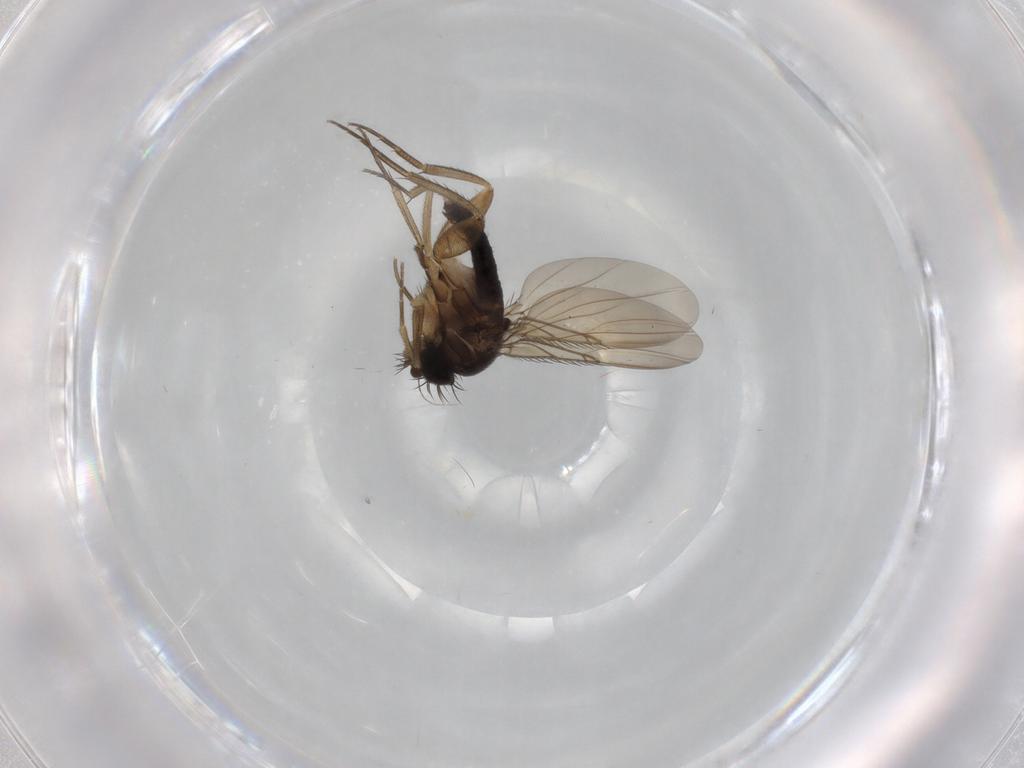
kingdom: Animalia
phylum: Arthropoda
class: Insecta
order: Diptera
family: Phoridae
